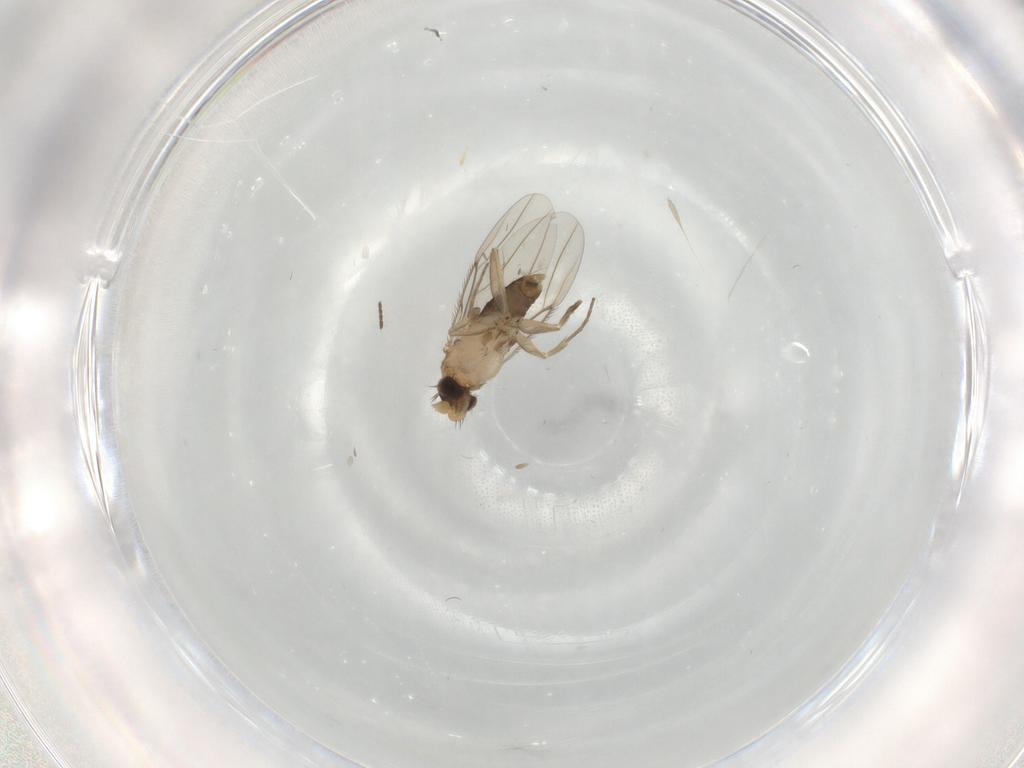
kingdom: Animalia
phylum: Arthropoda
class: Insecta
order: Diptera
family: Phoridae
